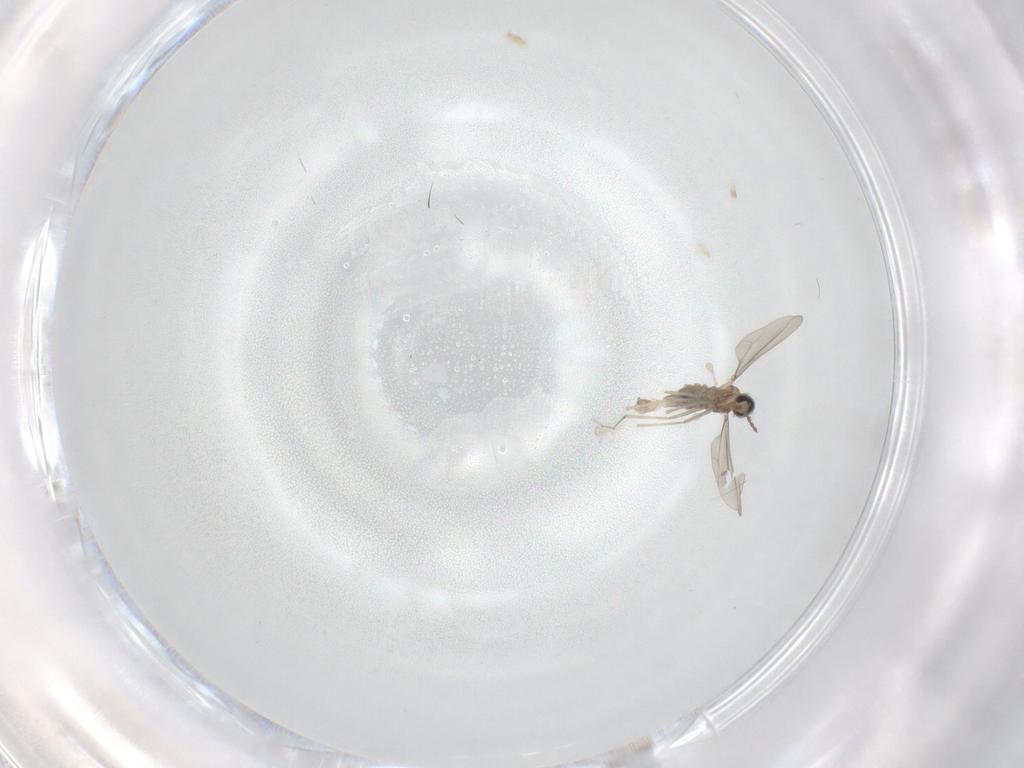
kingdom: Animalia
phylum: Arthropoda
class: Insecta
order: Diptera
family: Cecidomyiidae
